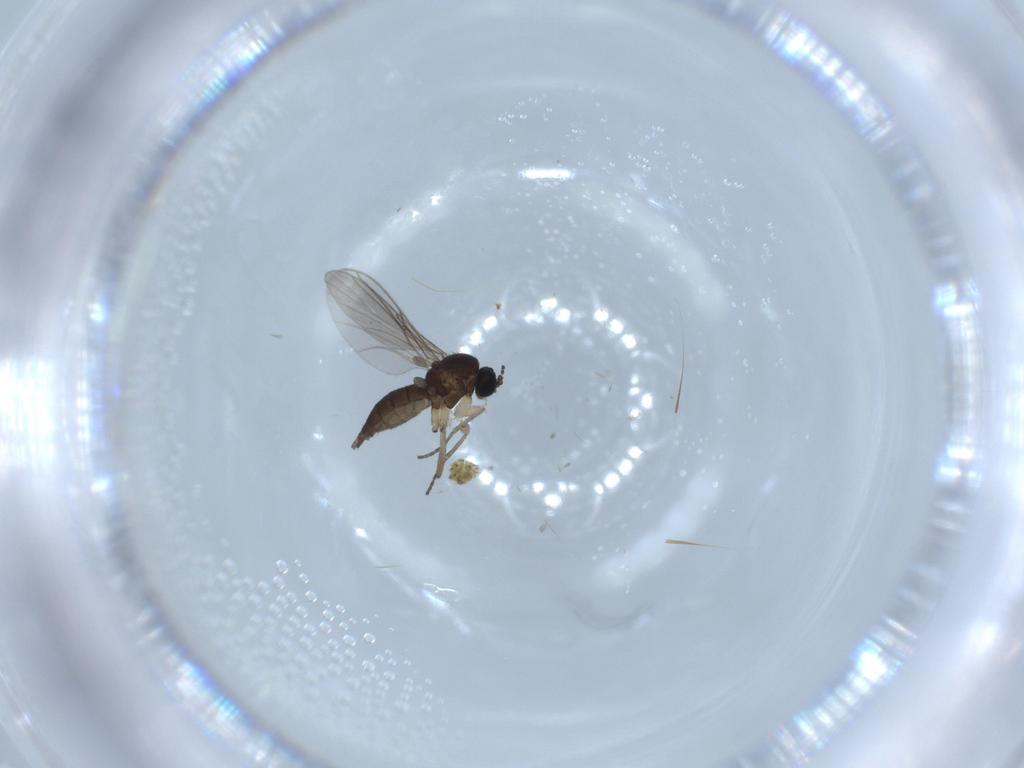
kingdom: Animalia
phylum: Arthropoda
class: Insecta
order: Diptera
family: Sciaridae
